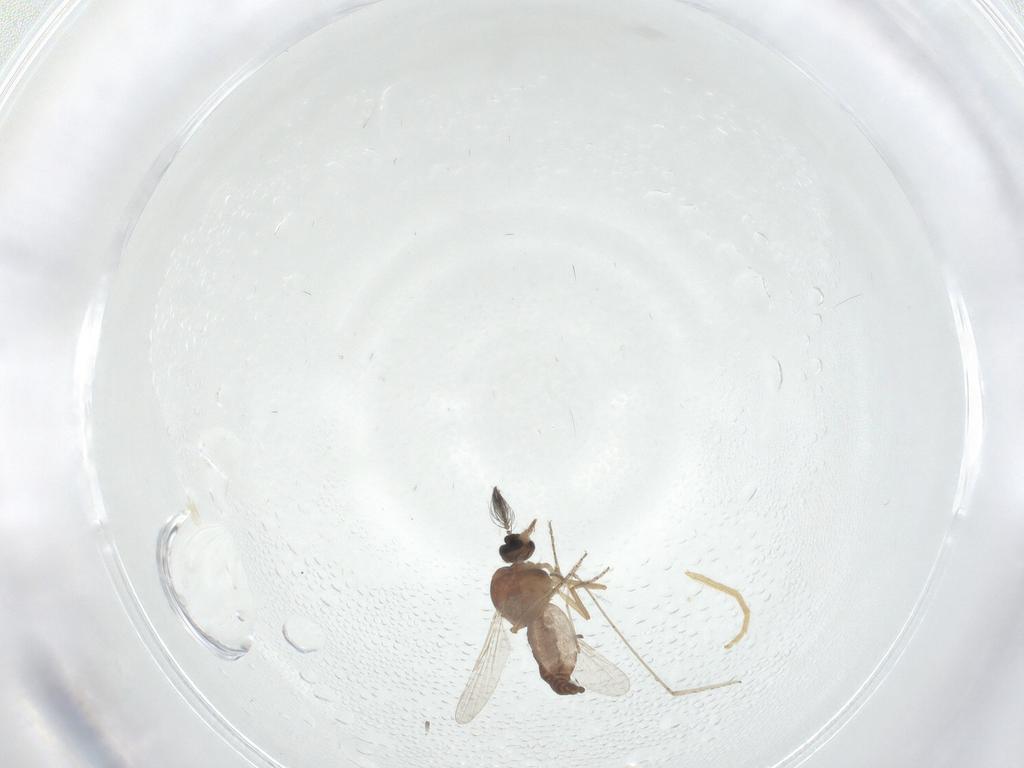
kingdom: Animalia
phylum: Arthropoda
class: Insecta
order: Diptera
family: Ceratopogonidae
